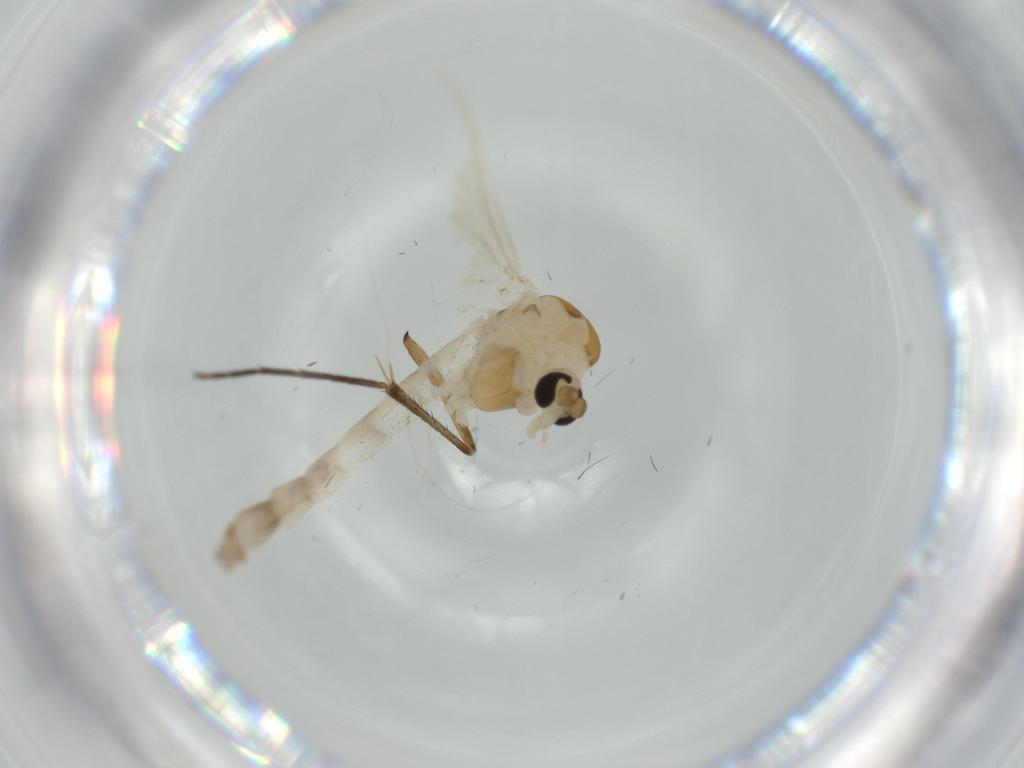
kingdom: Animalia
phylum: Arthropoda
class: Insecta
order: Diptera
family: Chironomidae
